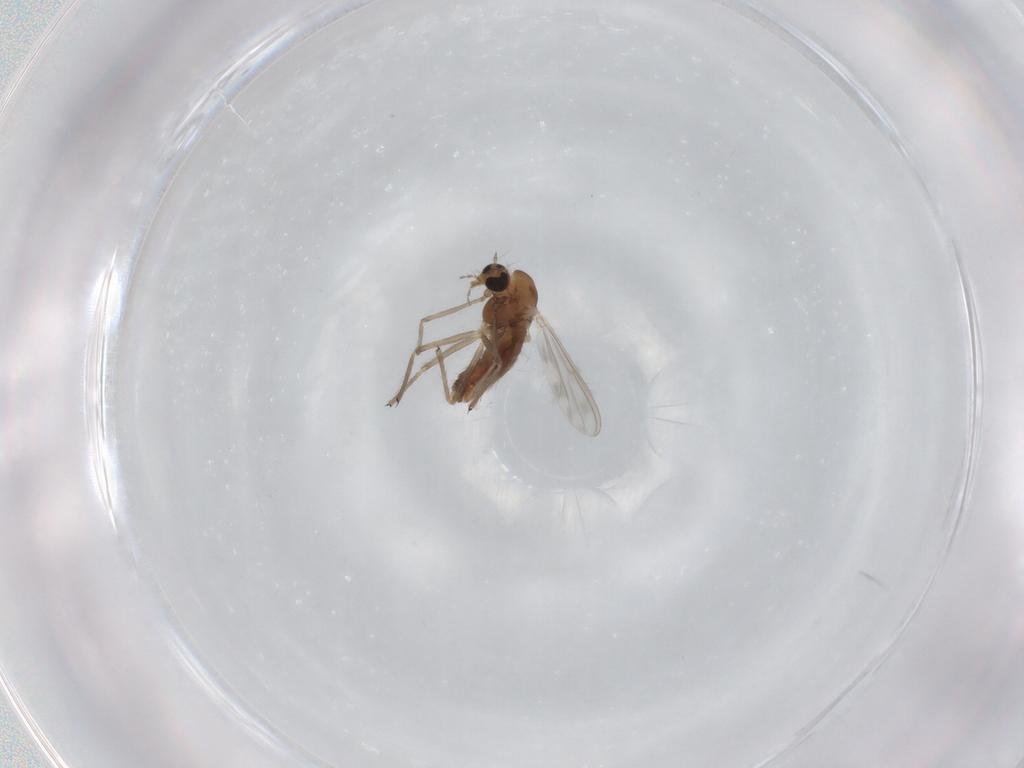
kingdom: Animalia
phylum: Arthropoda
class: Insecta
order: Diptera
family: Chironomidae
